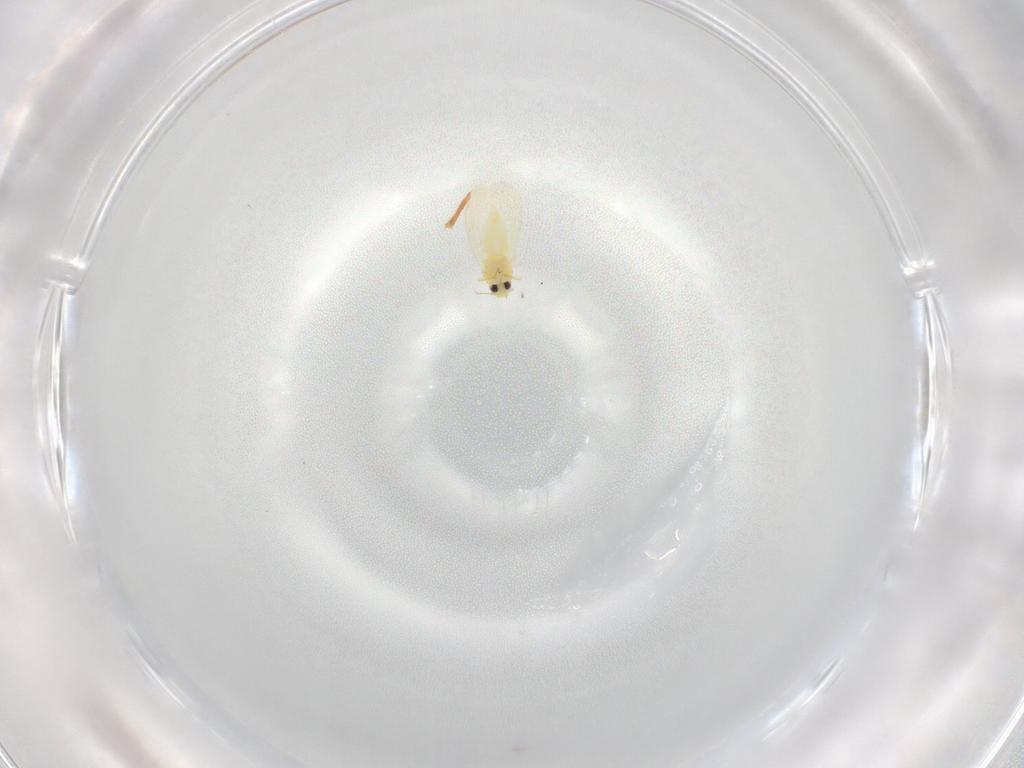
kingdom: Animalia
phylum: Arthropoda
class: Insecta
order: Hemiptera
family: Aleyrodidae
